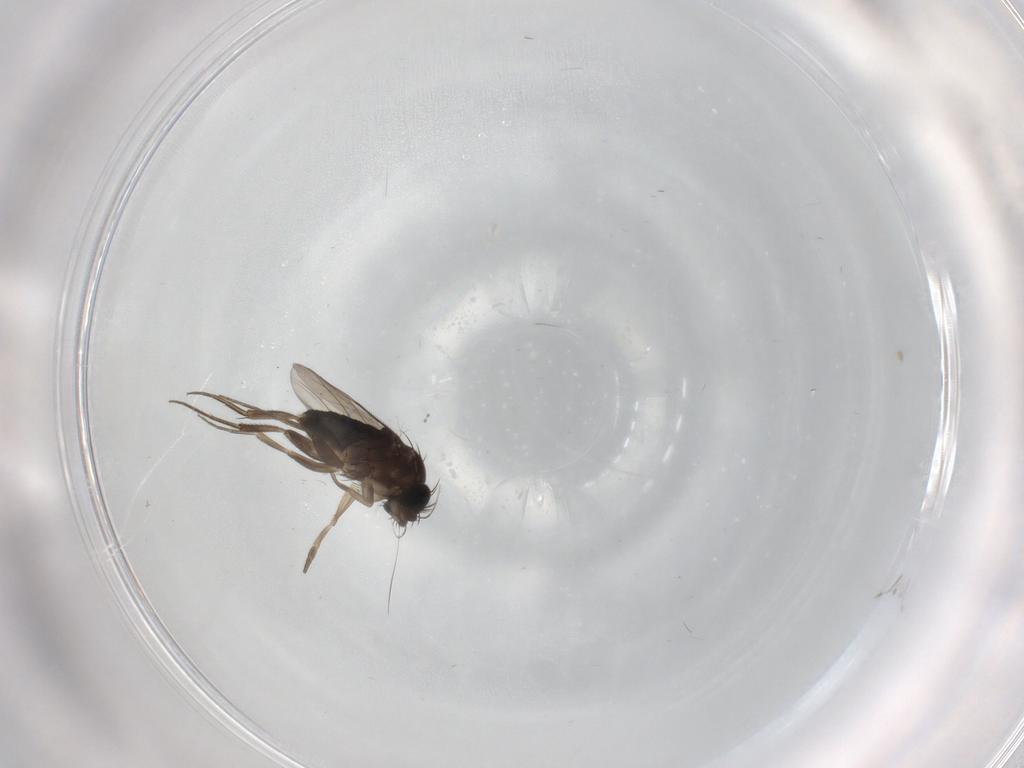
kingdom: Animalia
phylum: Arthropoda
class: Insecta
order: Diptera
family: Phoridae
